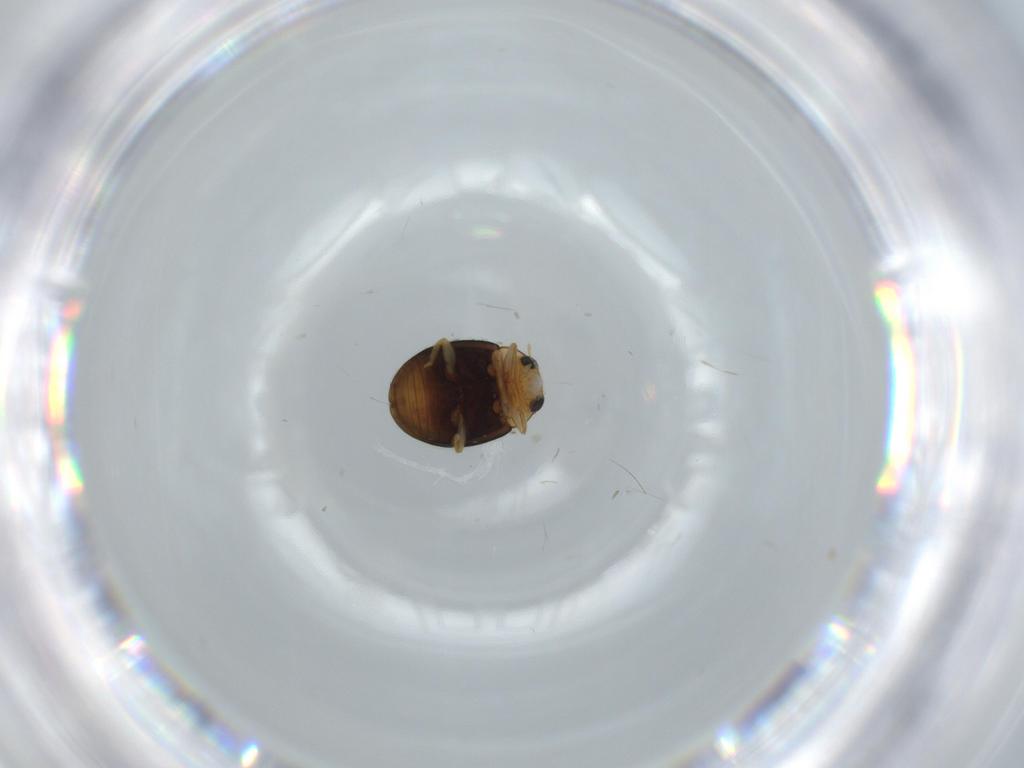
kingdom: Animalia
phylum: Arthropoda
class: Insecta
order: Coleoptera
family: Coccinellidae
